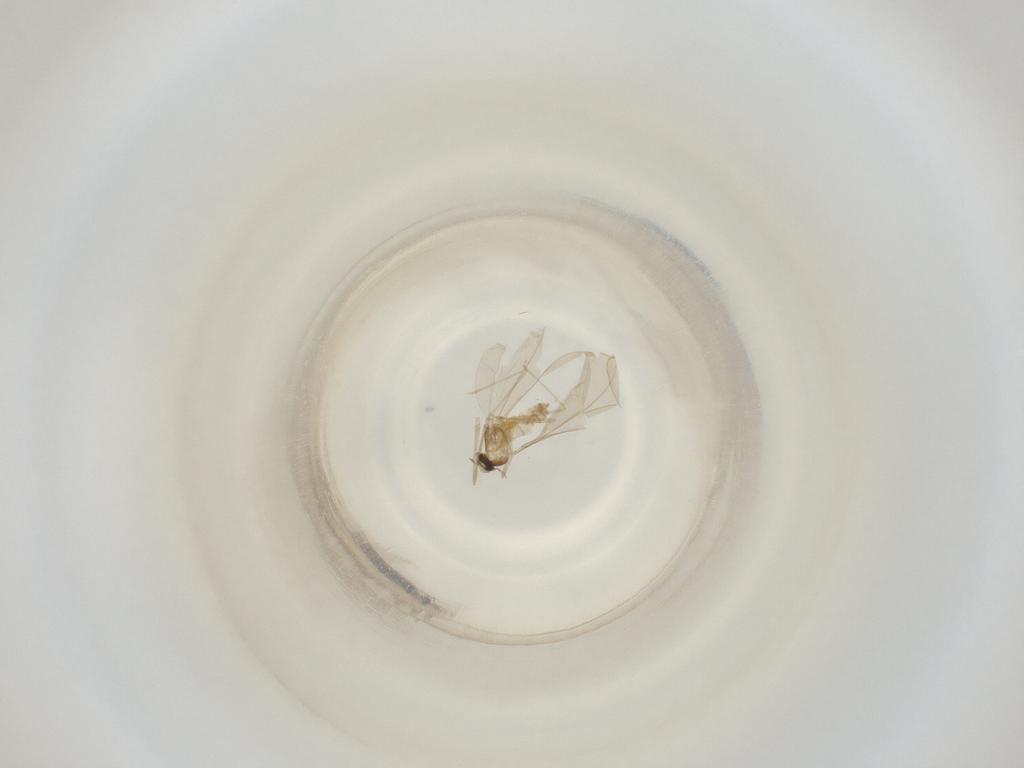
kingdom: Animalia
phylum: Arthropoda
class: Insecta
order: Diptera
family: Cecidomyiidae
